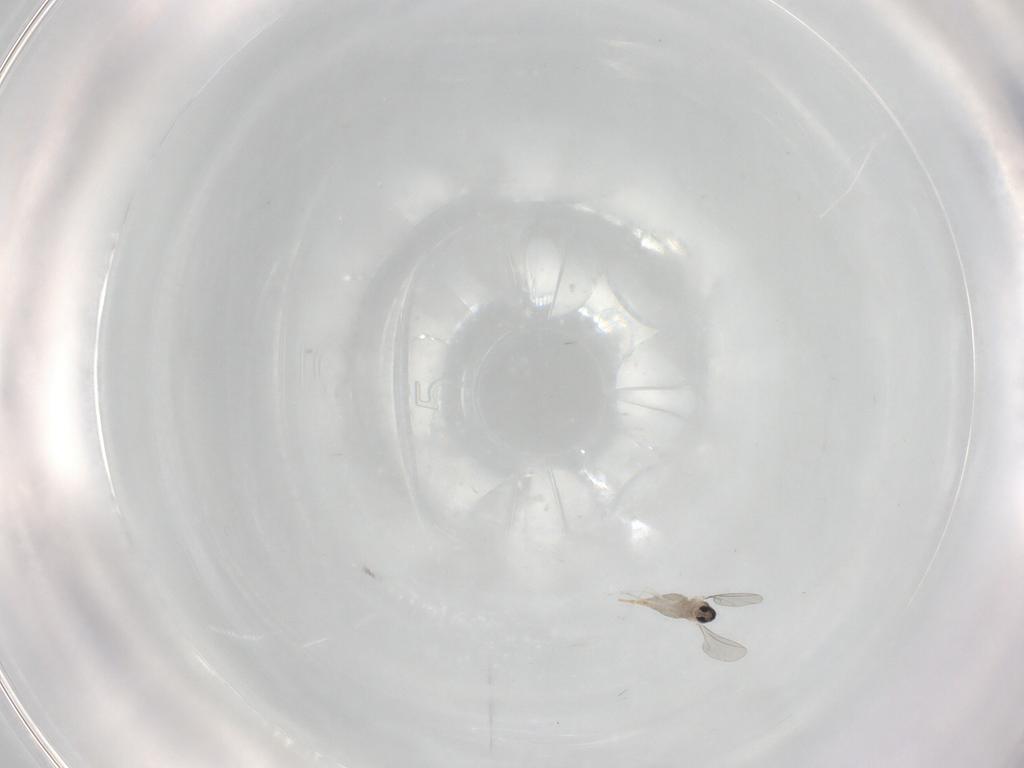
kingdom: Animalia
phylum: Arthropoda
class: Insecta
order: Diptera
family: Cecidomyiidae
